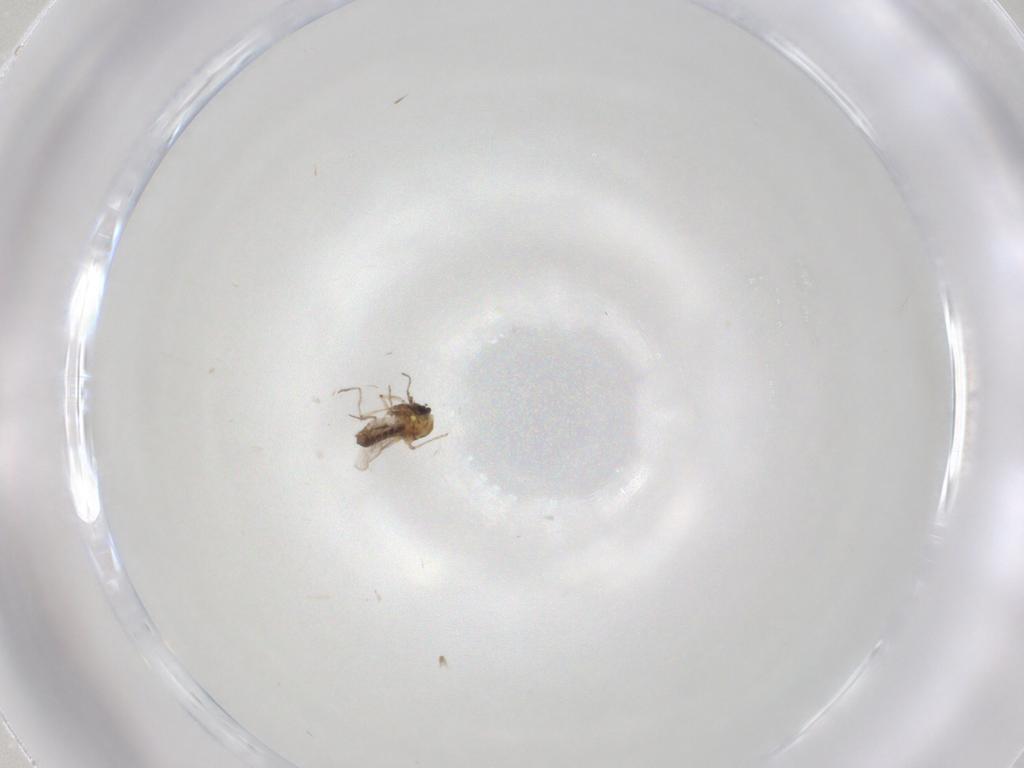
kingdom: Animalia
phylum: Arthropoda
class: Insecta
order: Diptera
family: Ceratopogonidae
